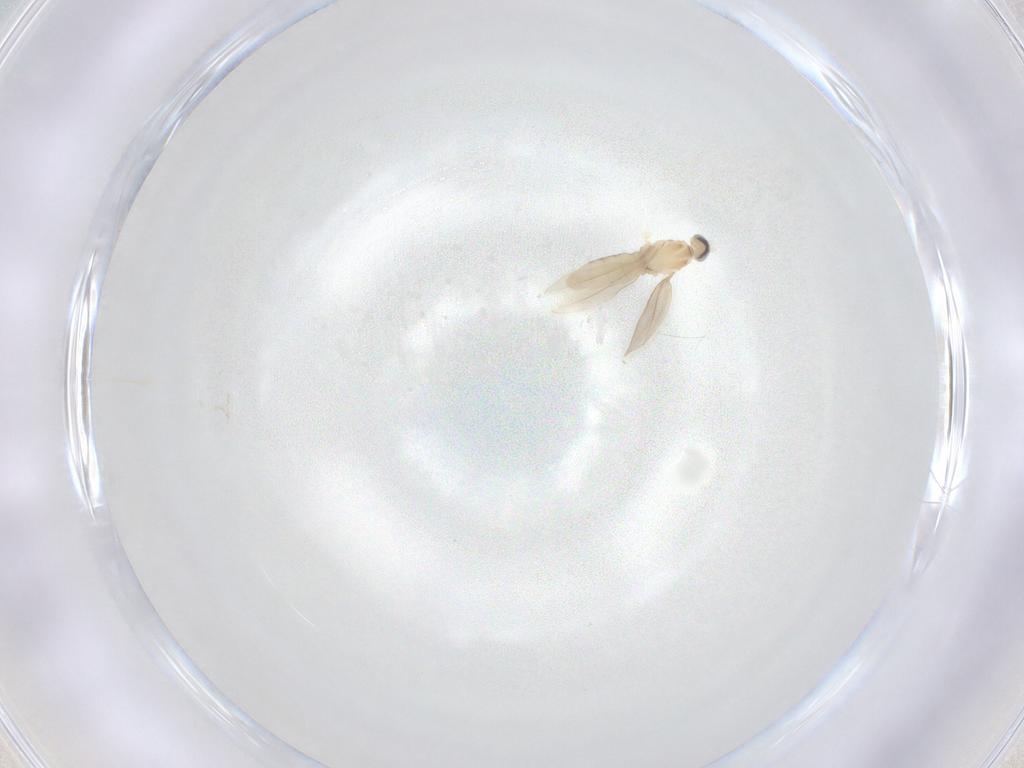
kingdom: Animalia
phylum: Arthropoda
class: Insecta
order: Diptera
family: Cecidomyiidae
